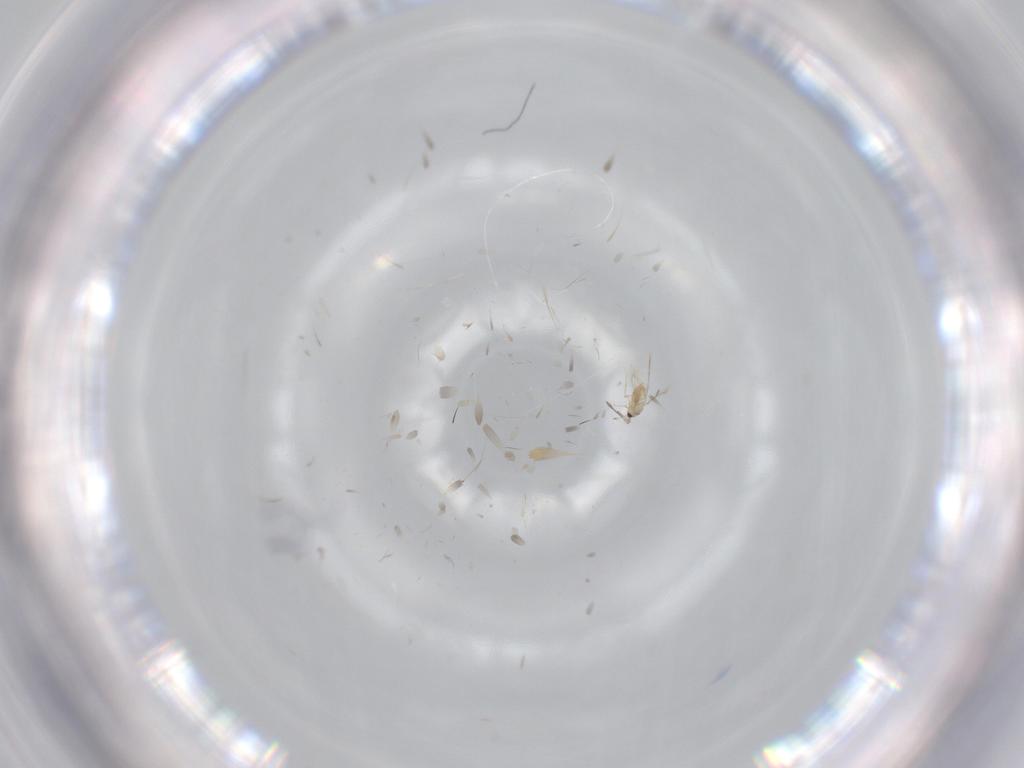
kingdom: Animalia
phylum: Arthropoda
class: Insecta
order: Hymenoptera
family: Mymaridae
